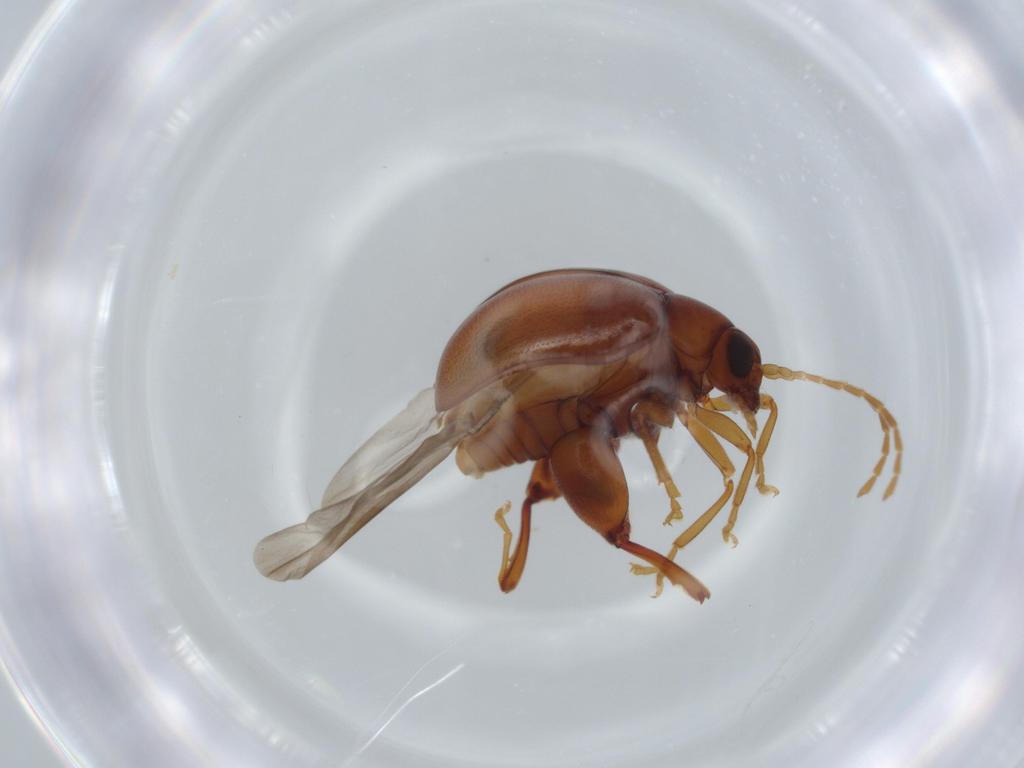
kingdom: Animalia
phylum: Arthropoda
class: Insecta
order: Coleoptera
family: Chrysomelidae
